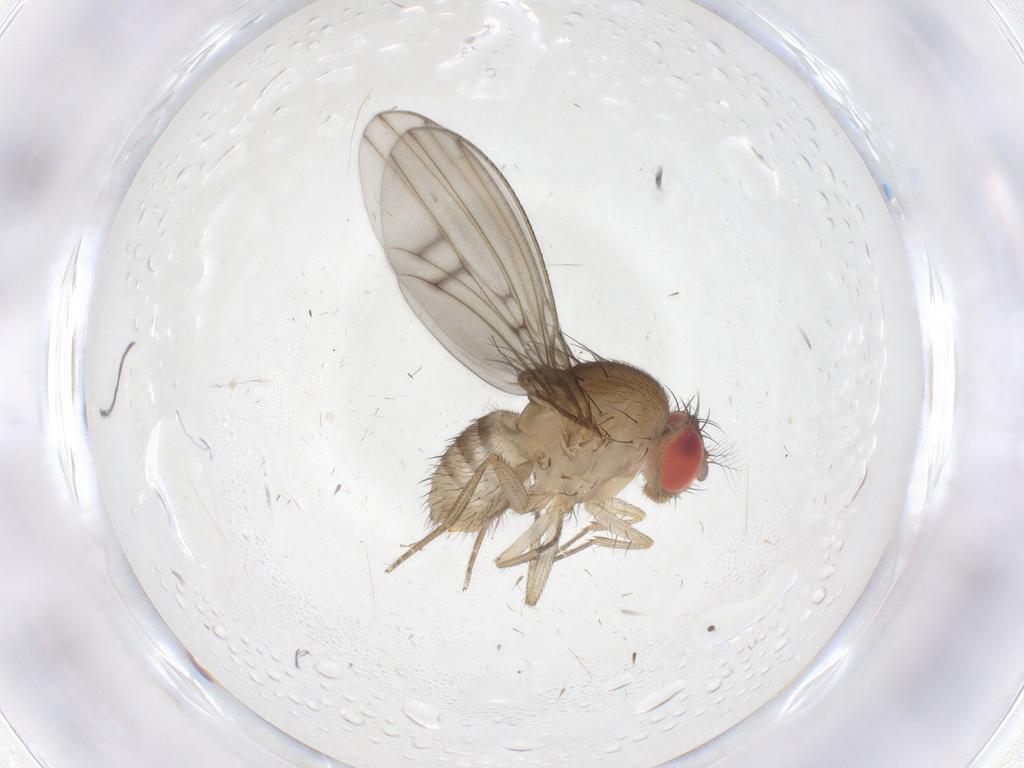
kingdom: Animalia
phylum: Arthropoda
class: Insecta
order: Diptera
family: Drosophilidae
